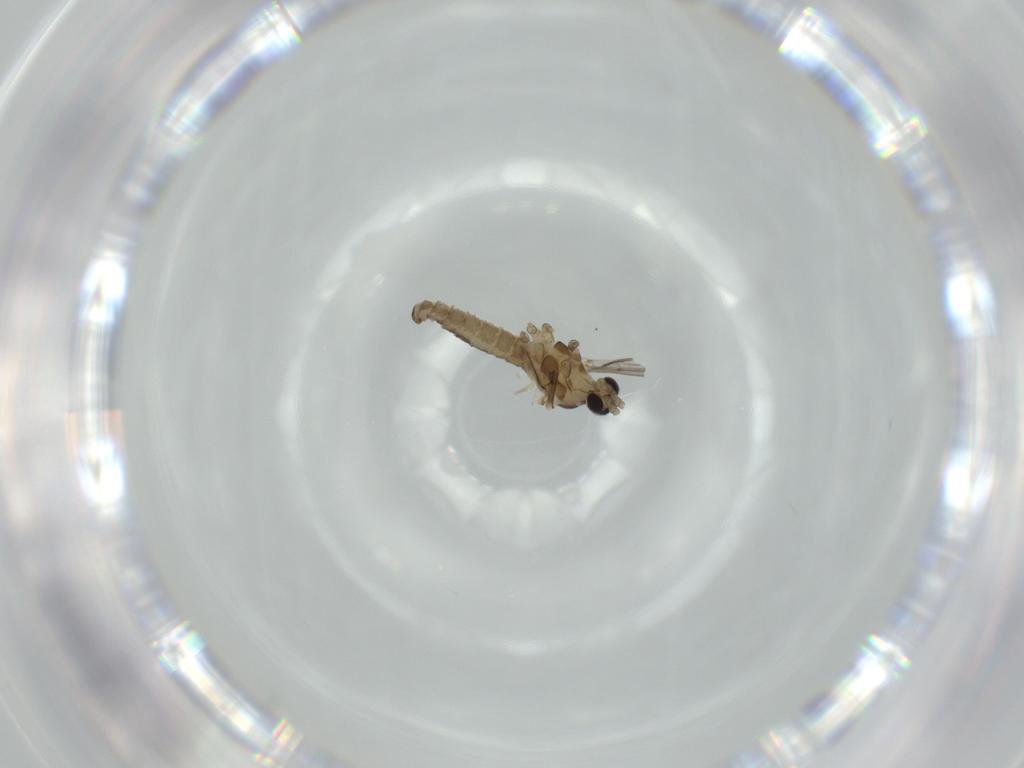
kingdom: Animalia
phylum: Arthropoda
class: Insecta
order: Diptera
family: Cecidomyiidae
